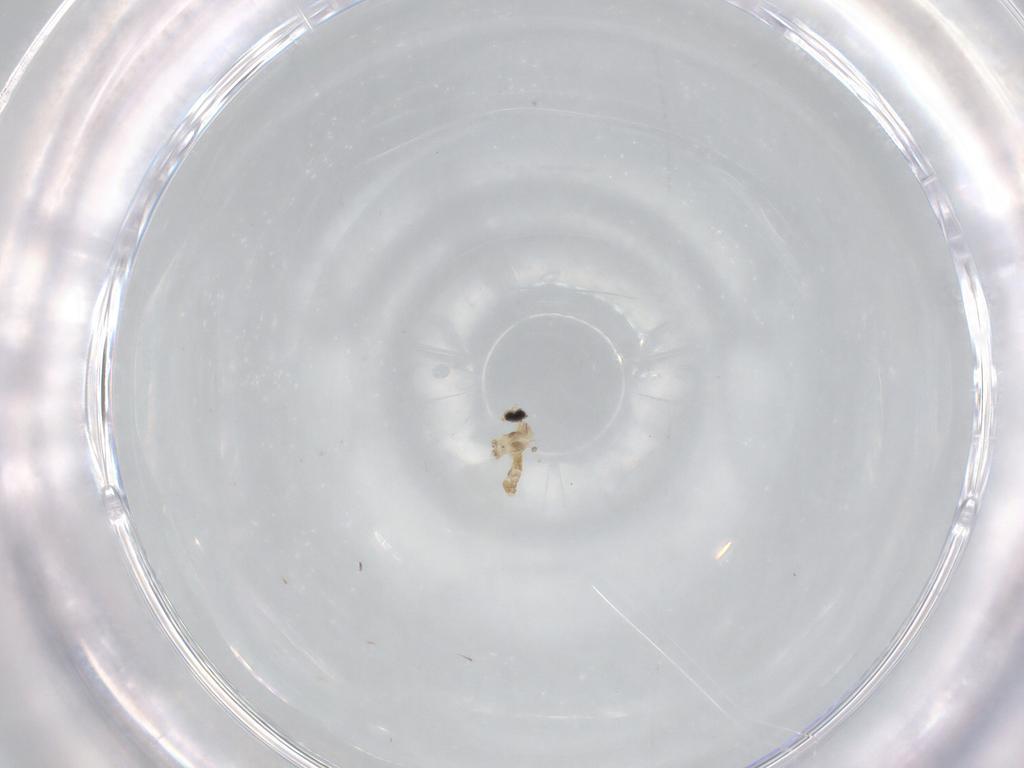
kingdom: Animalia
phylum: Arthropoda
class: Insecta
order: Diptera
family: Cecidomyiidae
